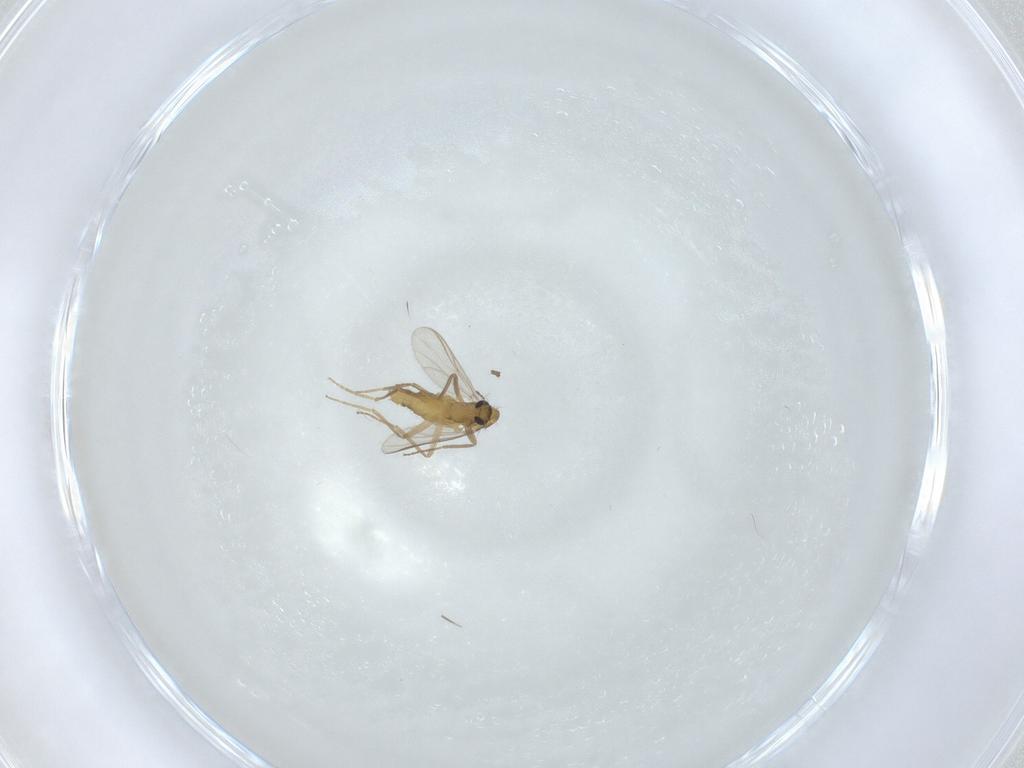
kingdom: Animalia
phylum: Arthropoda
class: Insecta
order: Diptera
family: Chironomidae
